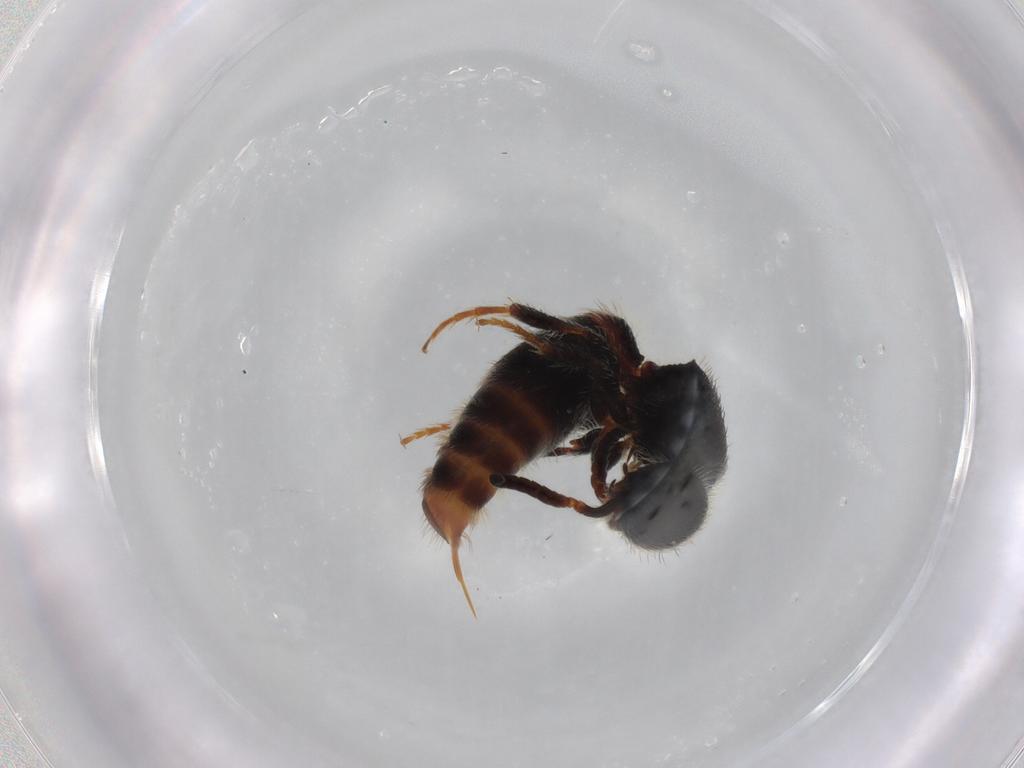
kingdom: Animalia
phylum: Arthropoda
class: Insecta
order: Hymenoptera
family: Mutillidae
